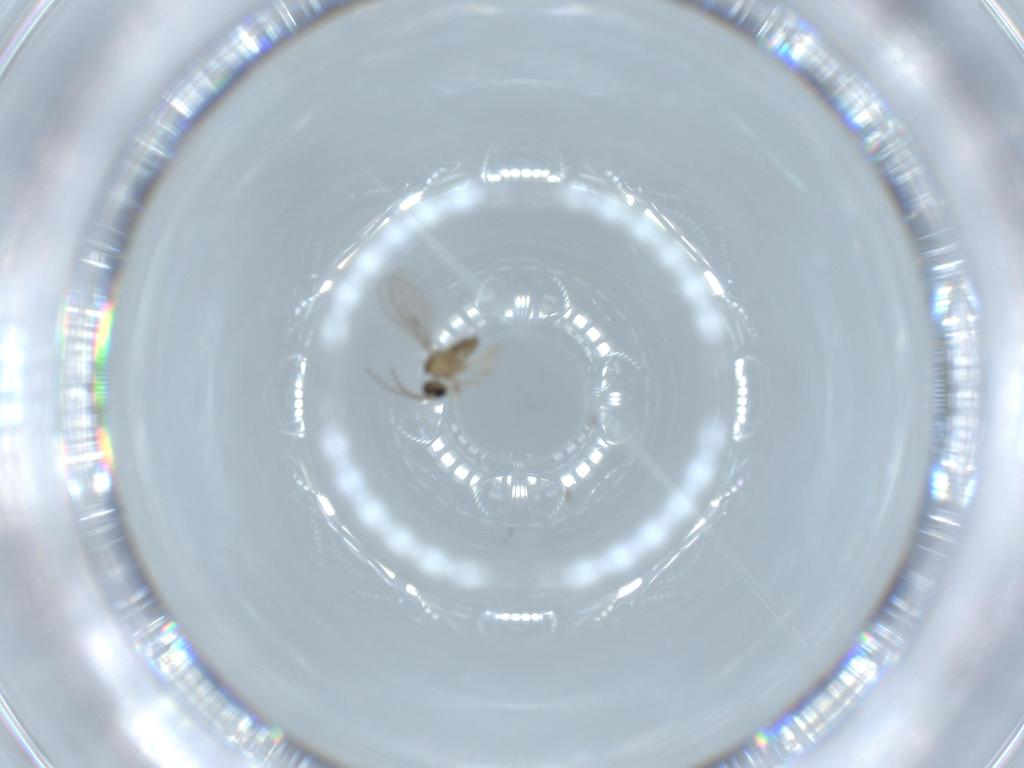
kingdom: Animalia
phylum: Arthropoda
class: Insecta
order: Diptera
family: Cecidomyiidae
